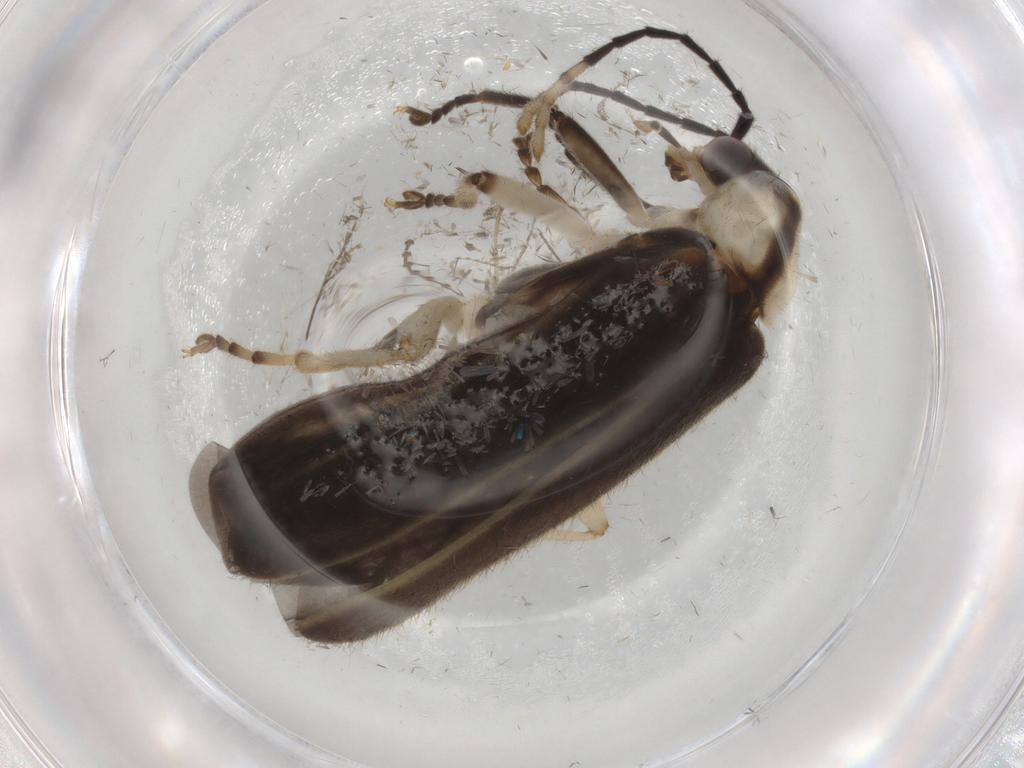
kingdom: Animalia
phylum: Arthropoda
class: Insecta
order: Coleoptera
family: Cantharidae
